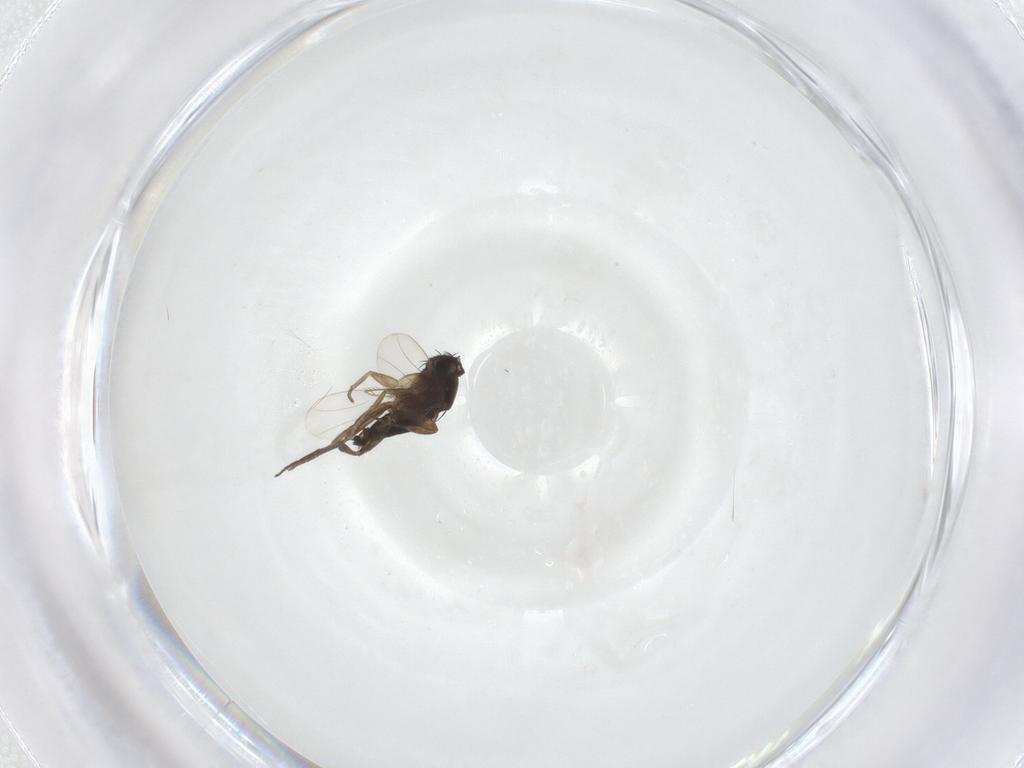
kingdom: Animalia
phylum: Arthropoda
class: Insecta
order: Diptera
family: Phoridae
